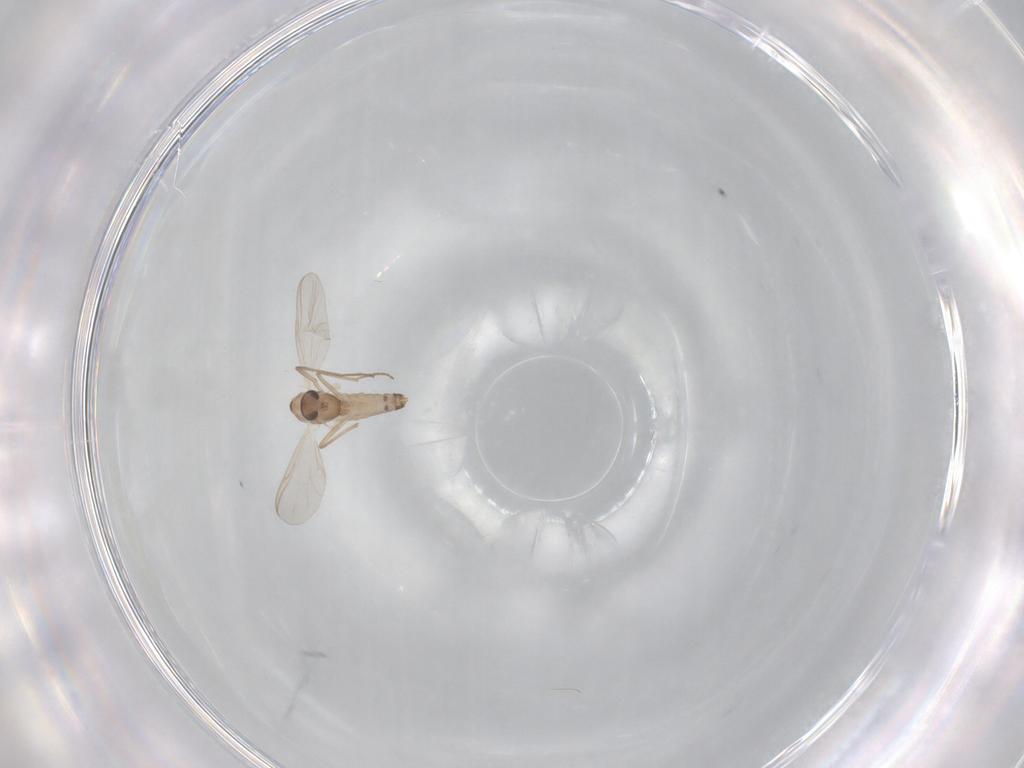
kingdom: Animalia
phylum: Arthropoda
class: Insecta
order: Diptera
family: Chironomidae
